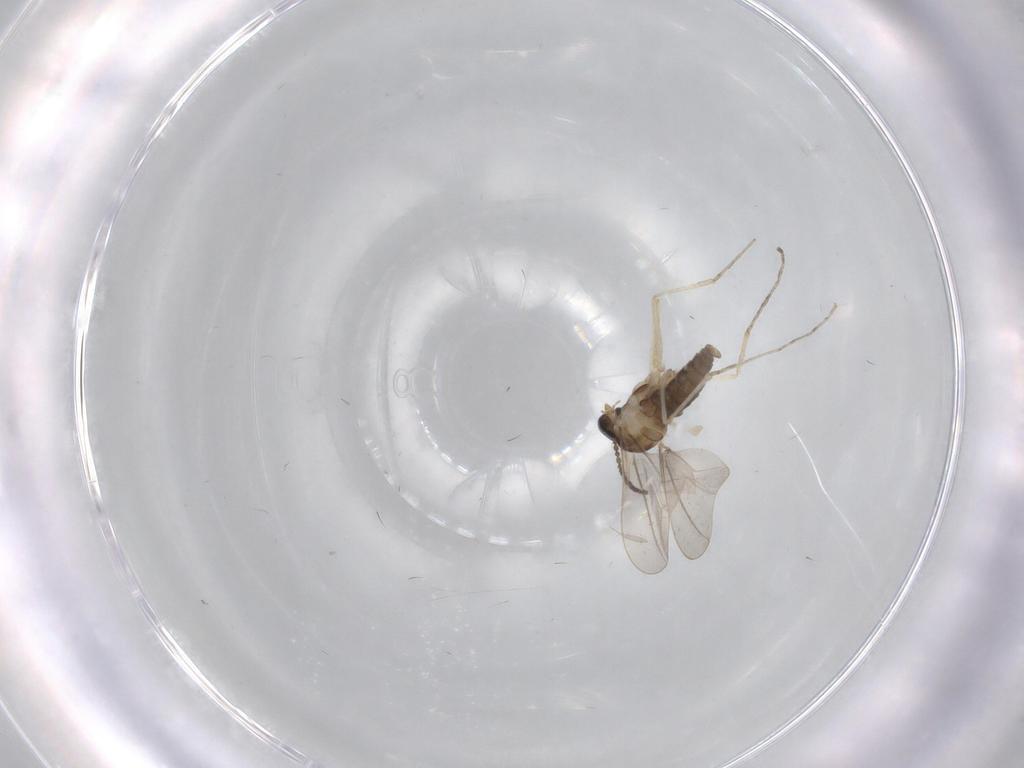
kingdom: Animalia
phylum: Arthropoda
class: Insecta
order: Diptera
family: Cecidomyiidae
